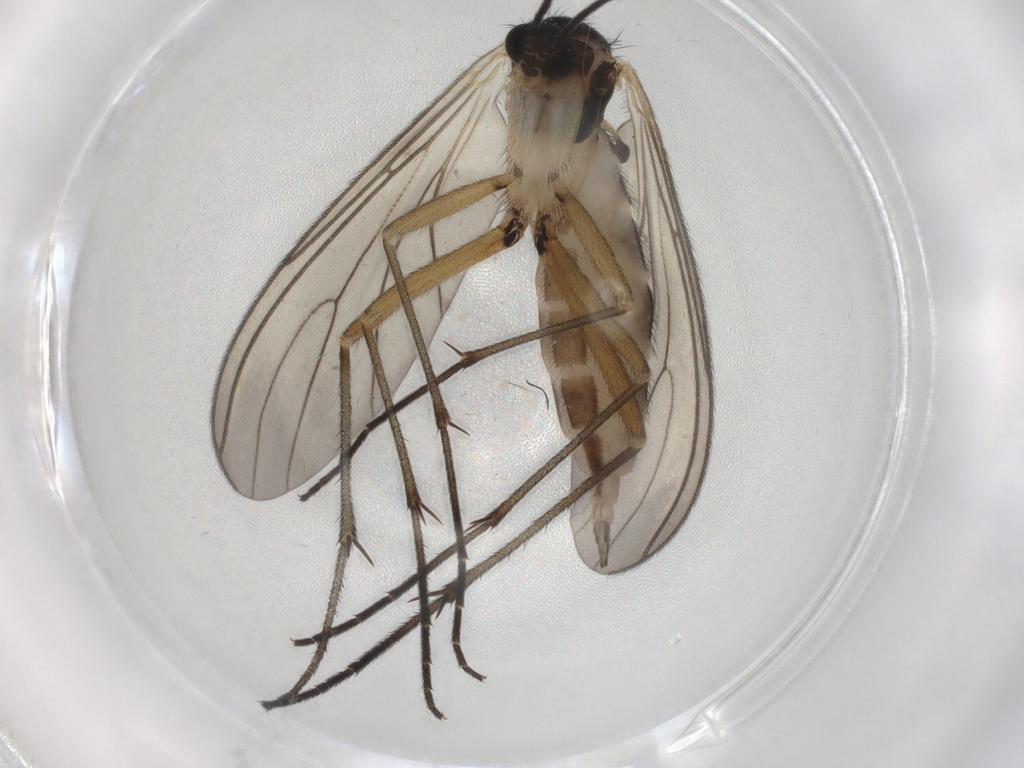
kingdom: Animalia
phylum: Arthropoda
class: Insecta
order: Diptera
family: Sciaridae
